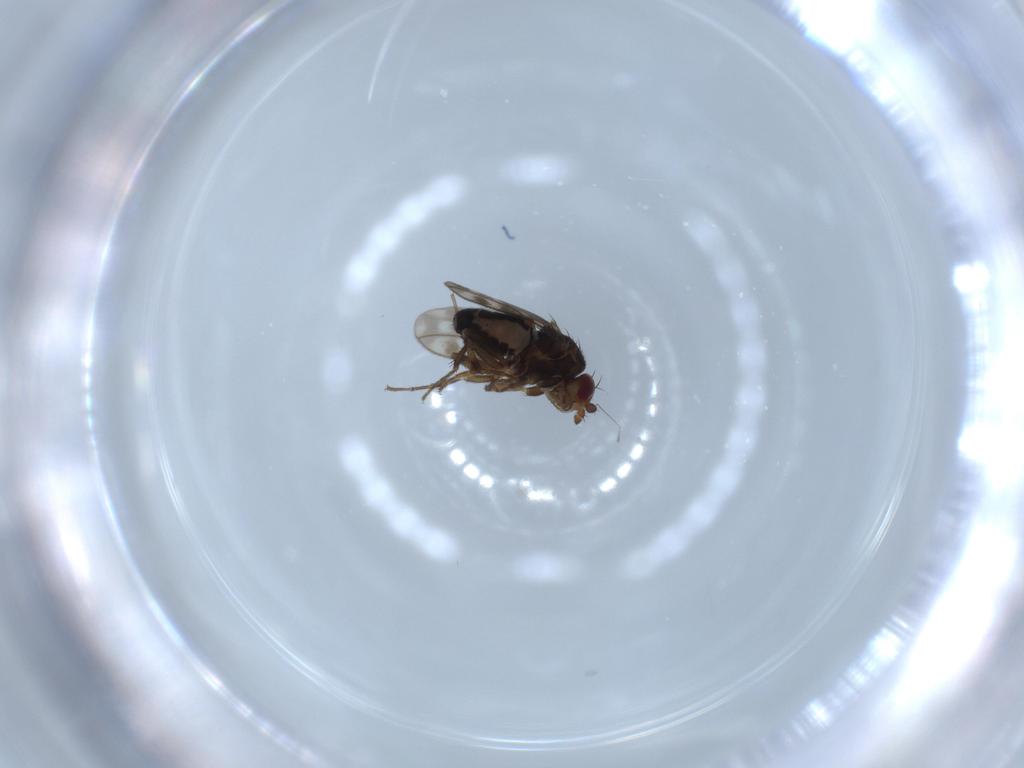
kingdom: Animalia
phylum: Arthropoda
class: Insecta
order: Diptera
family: Sphaeroceridae
